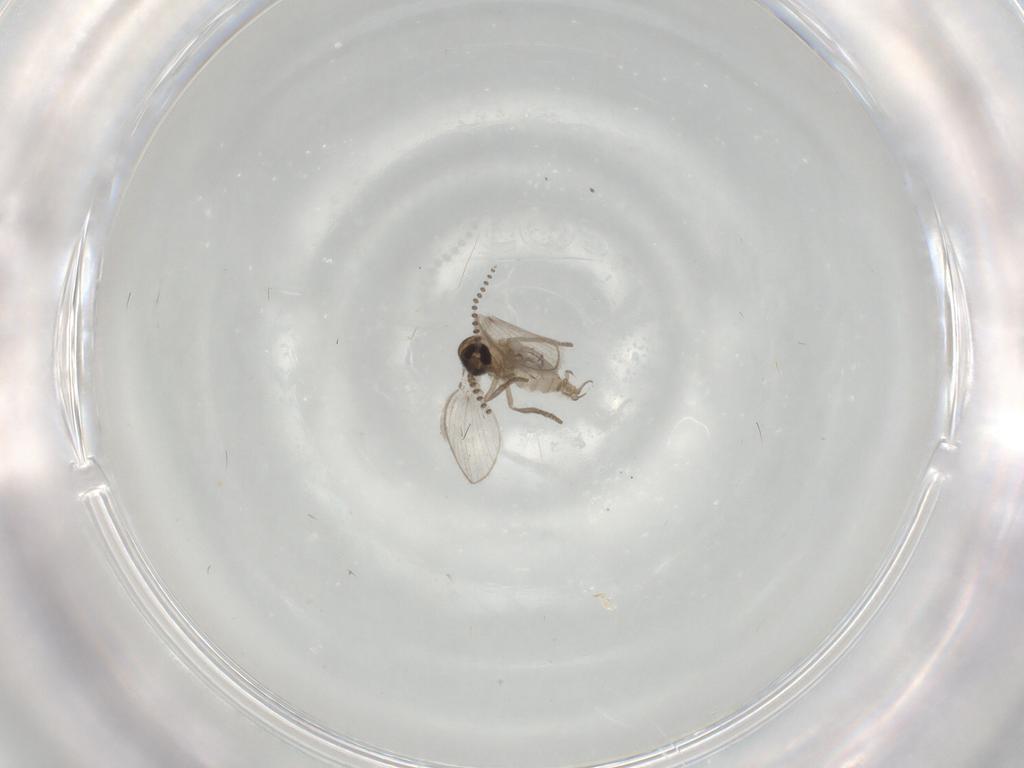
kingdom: Animalia
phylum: Arthropoda
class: Insecta
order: Diptera
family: Psychodidae
